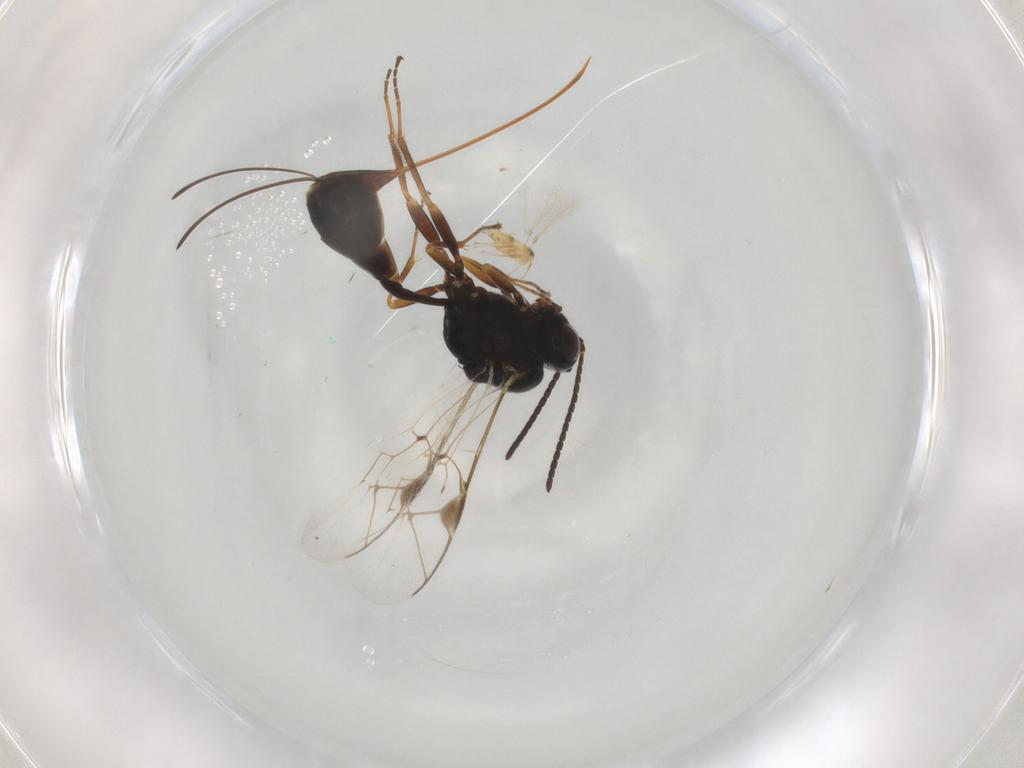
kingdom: Animalia
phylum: Arthropoda
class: Insecta
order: Hymenoptera
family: Ichneumonidae
